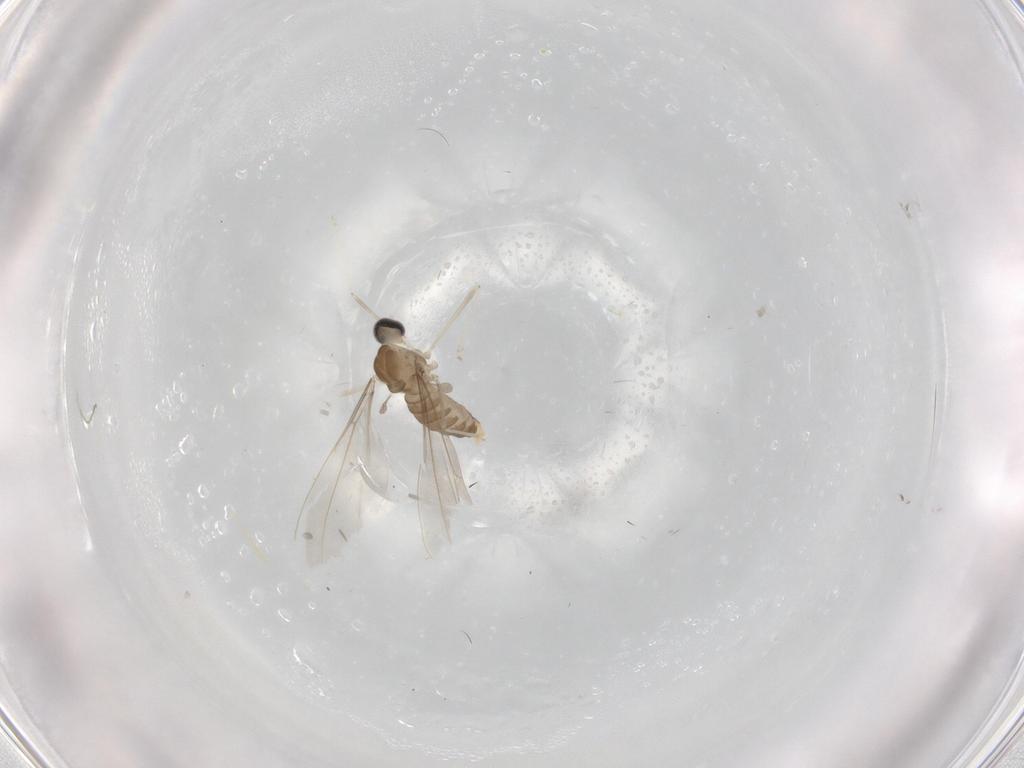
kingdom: Animalia
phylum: Arthropoda
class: Insecta
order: Diptera
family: Cecidomyiidae
